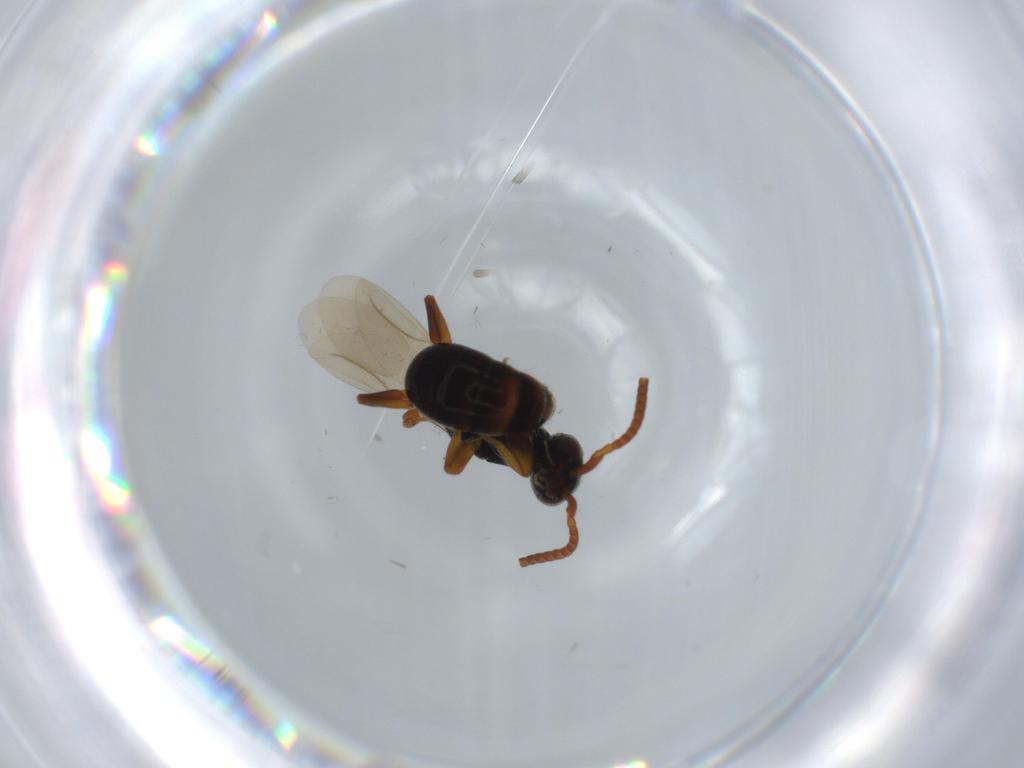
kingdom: Animalia
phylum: Arthropoda
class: Insecta
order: Hymenoptera
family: Bethylidae
